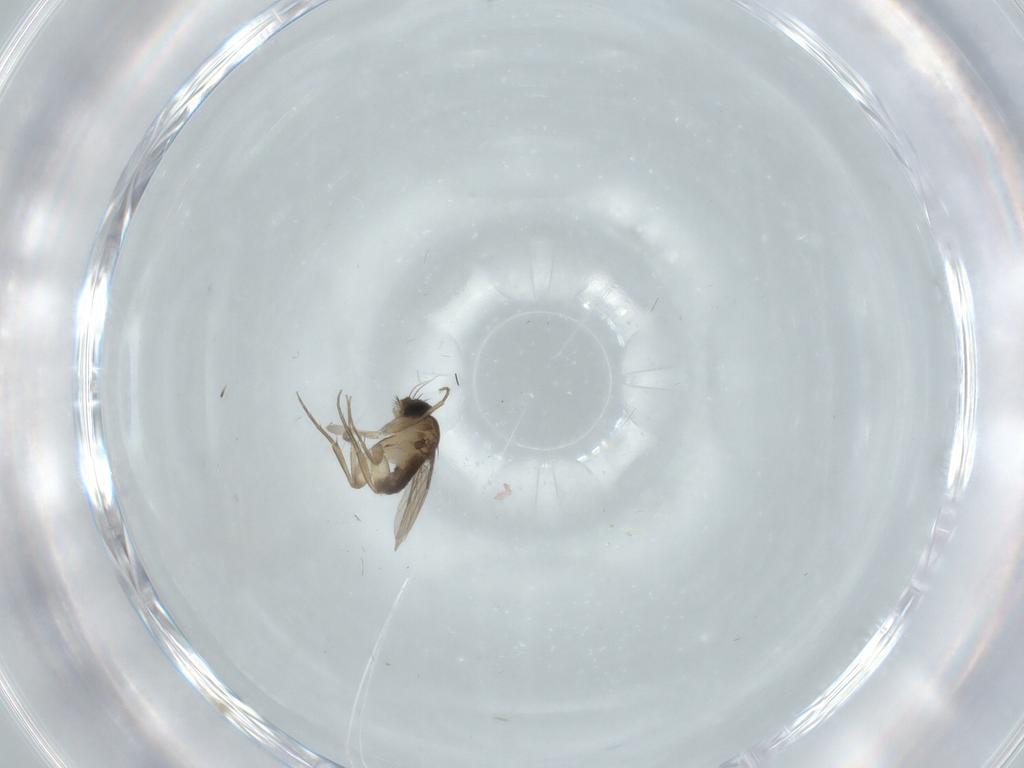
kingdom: Animalia
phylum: Arthropoda
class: Insecta
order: Diptera
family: Phoridae
